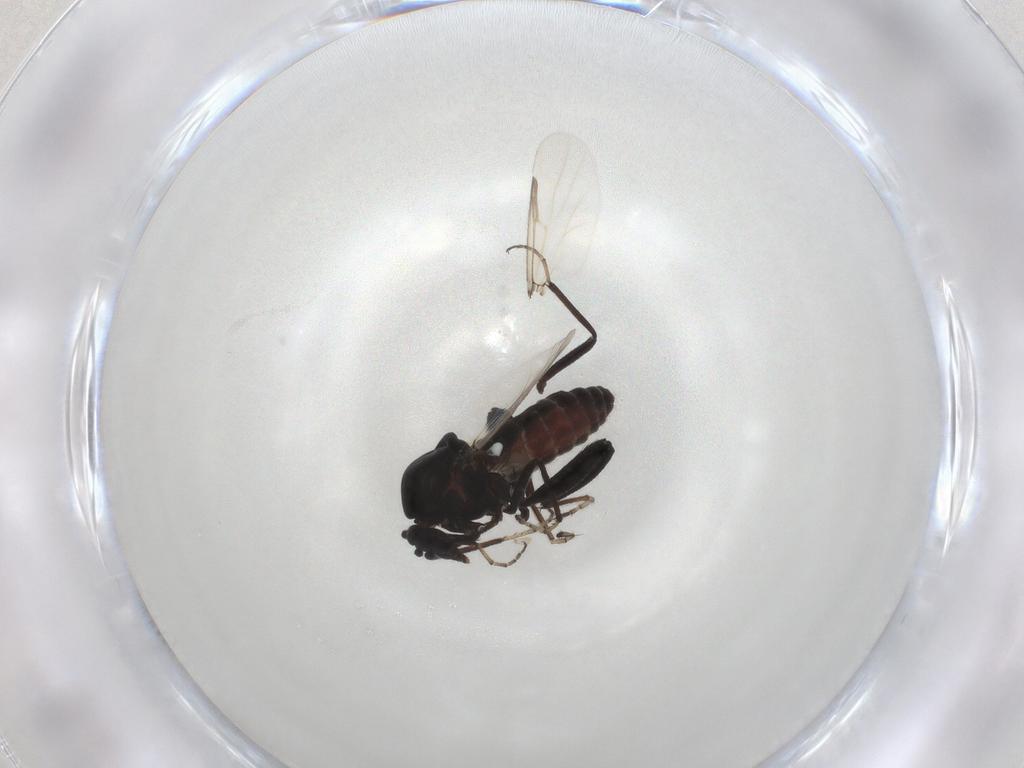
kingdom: Animalia
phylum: Arthropoda
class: Insecta
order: Diptera
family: Ceratopogonidae
